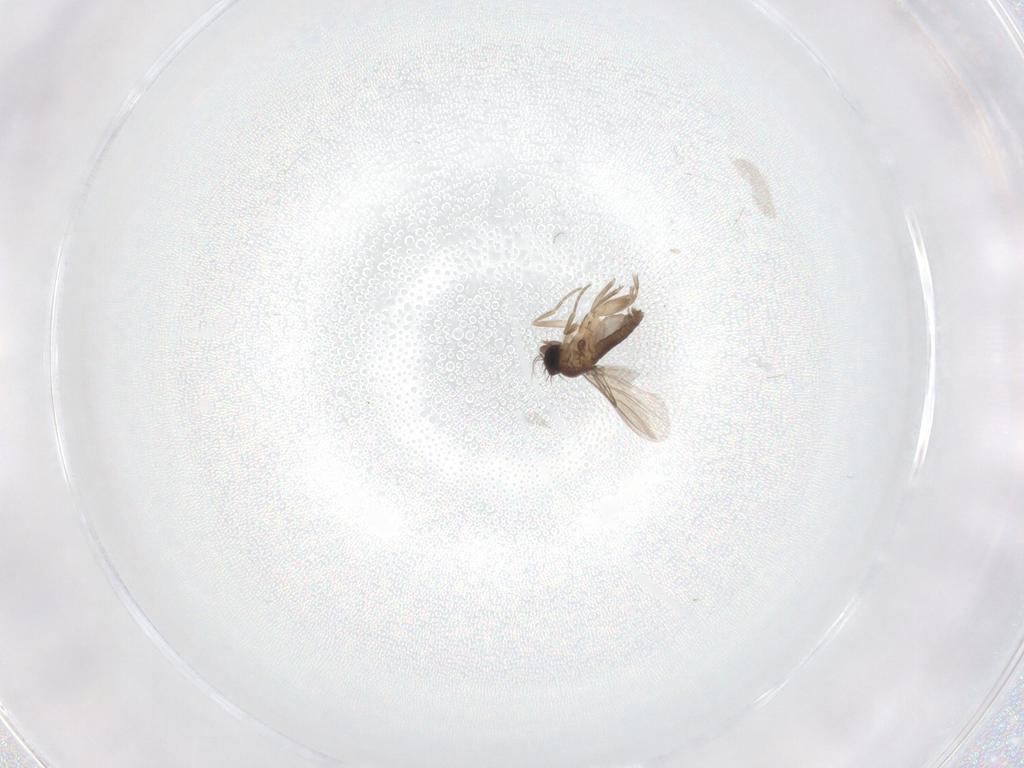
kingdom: Animalia
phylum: Arthropoda
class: Insecta
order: Diptera
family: Phoridae
